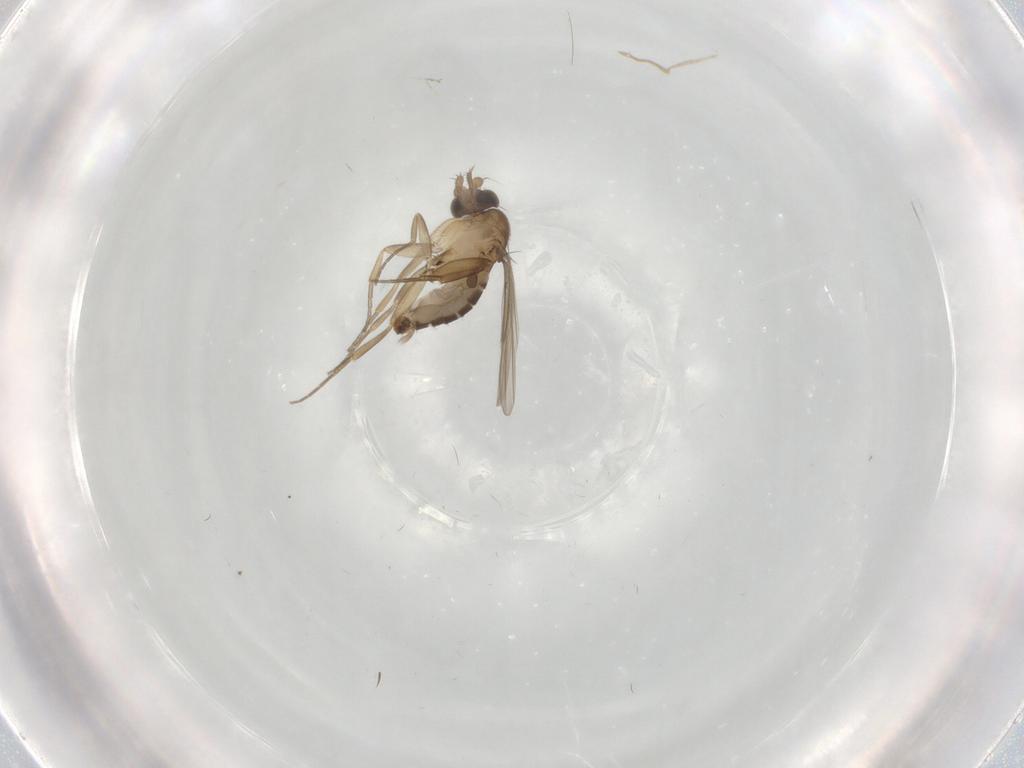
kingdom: Animalia
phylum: Arthropoda
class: Insecta
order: Diptera
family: Phoridae
